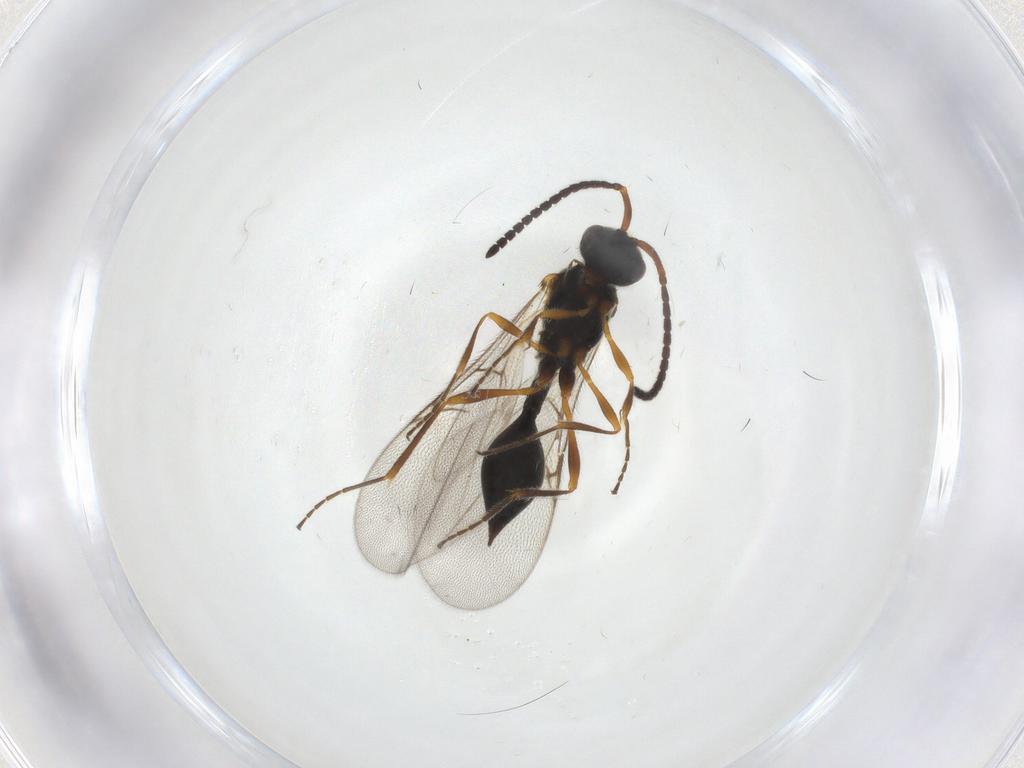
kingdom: Animalia
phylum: Arthropoda
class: Insecta
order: Hymenoptera
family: Diapriidae
